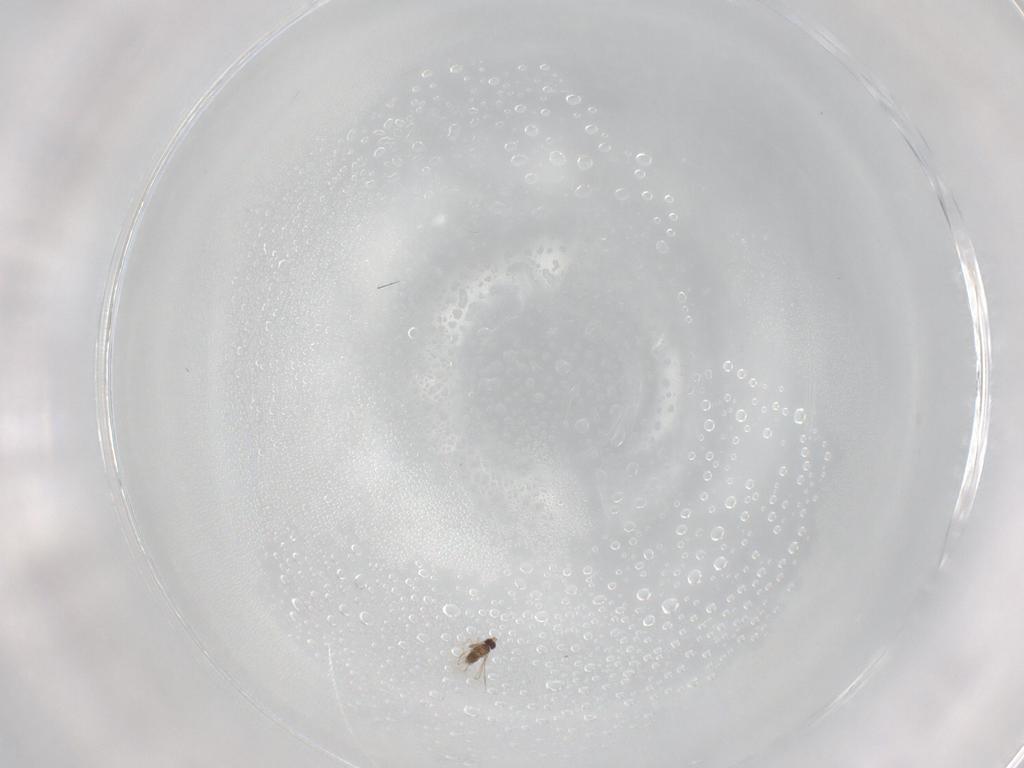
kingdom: Animalia
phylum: Arthropoda
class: Insecta
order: Hymenoptera
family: Diapriidae
